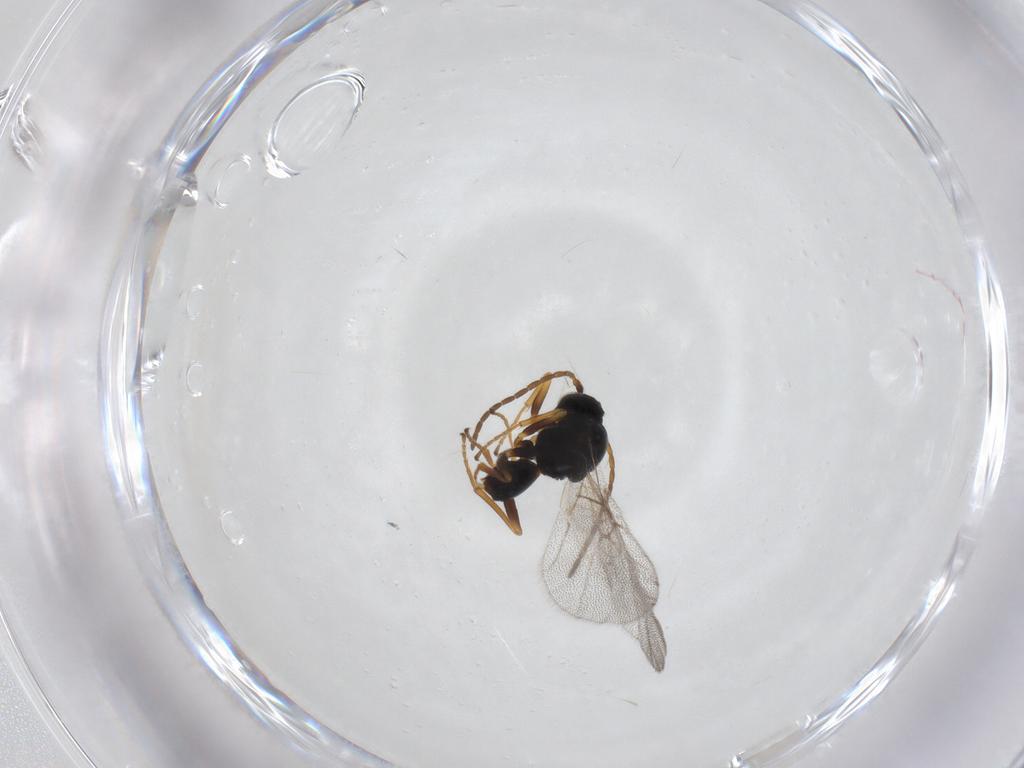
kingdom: Animalia
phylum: Arthropoda
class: Insecta
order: Hymenoptera
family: Cynipidae
